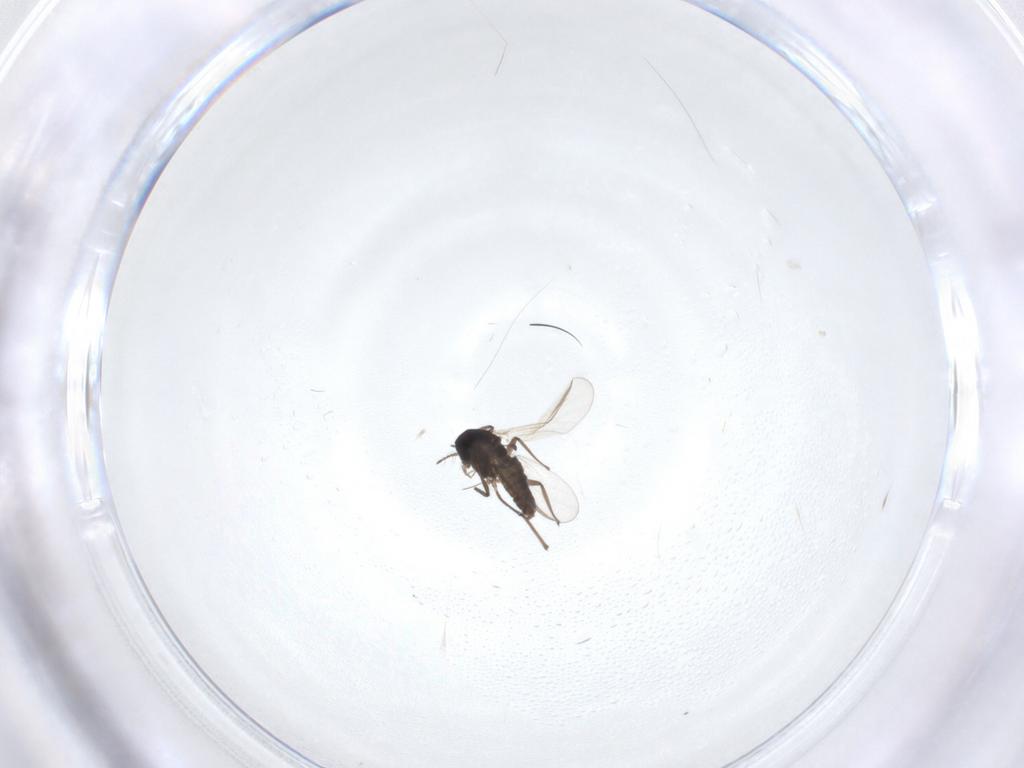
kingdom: Animalia
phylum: Arthropoda
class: Insecta
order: Diptera
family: Chironomidae
